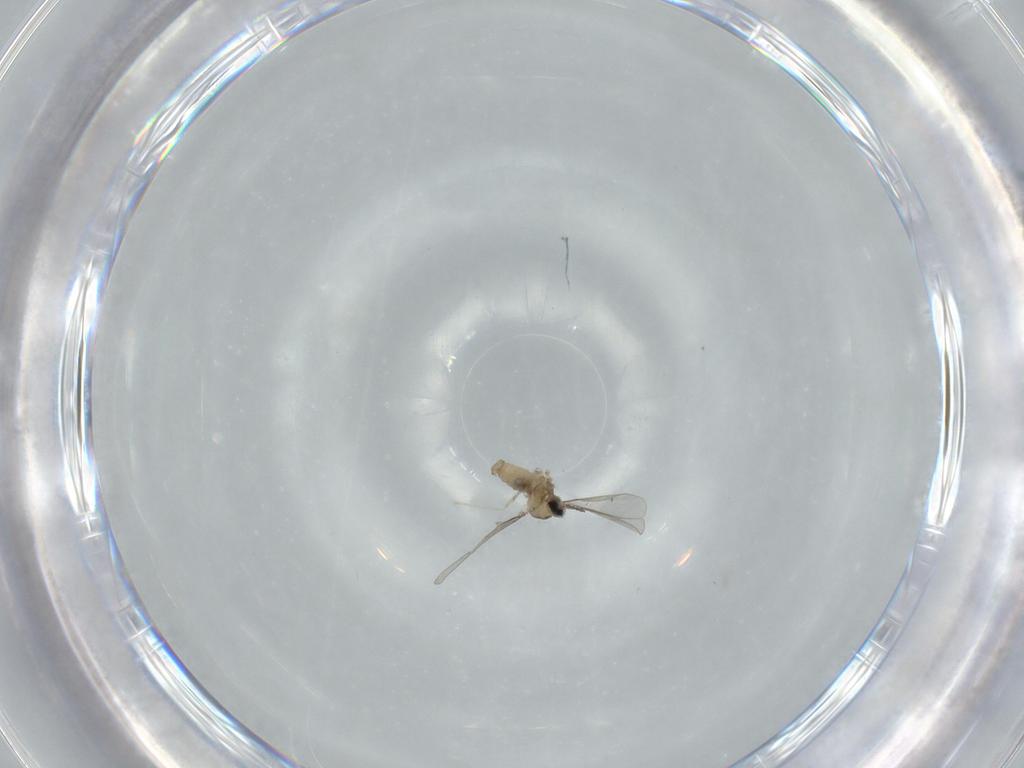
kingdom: Animalia
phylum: Arthropoda
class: Insecta
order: Diptera
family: Cecidomyiidae
